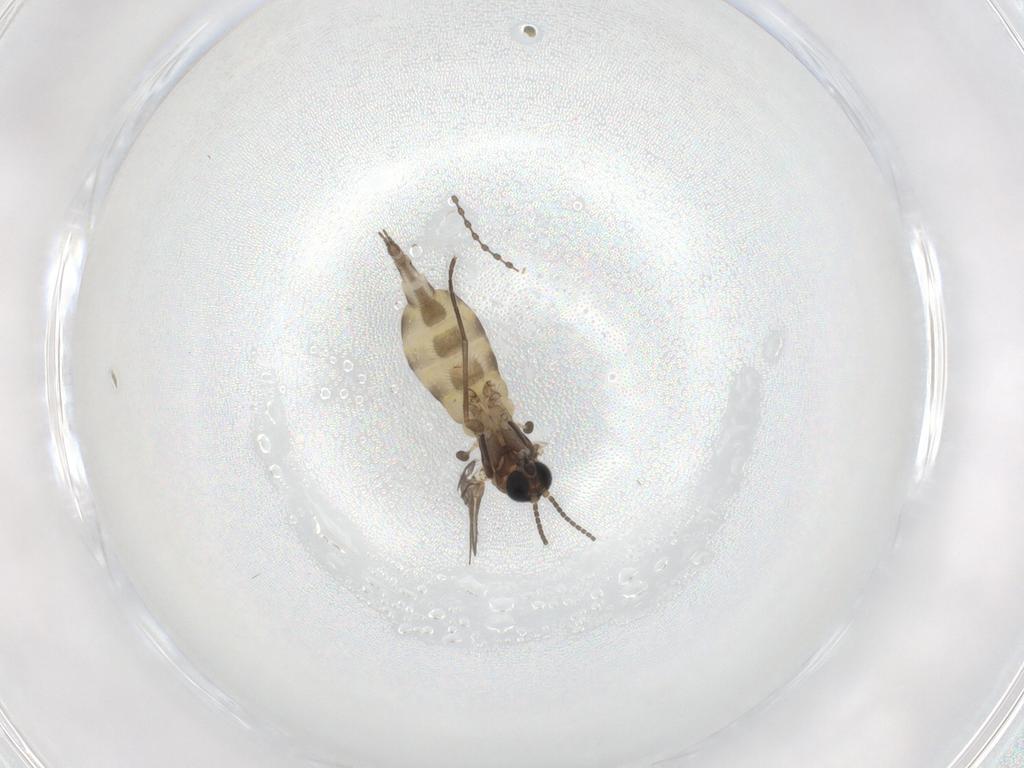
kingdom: Animalia
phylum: Arthropoda
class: Insecta
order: Diptera
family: Sciaridae
